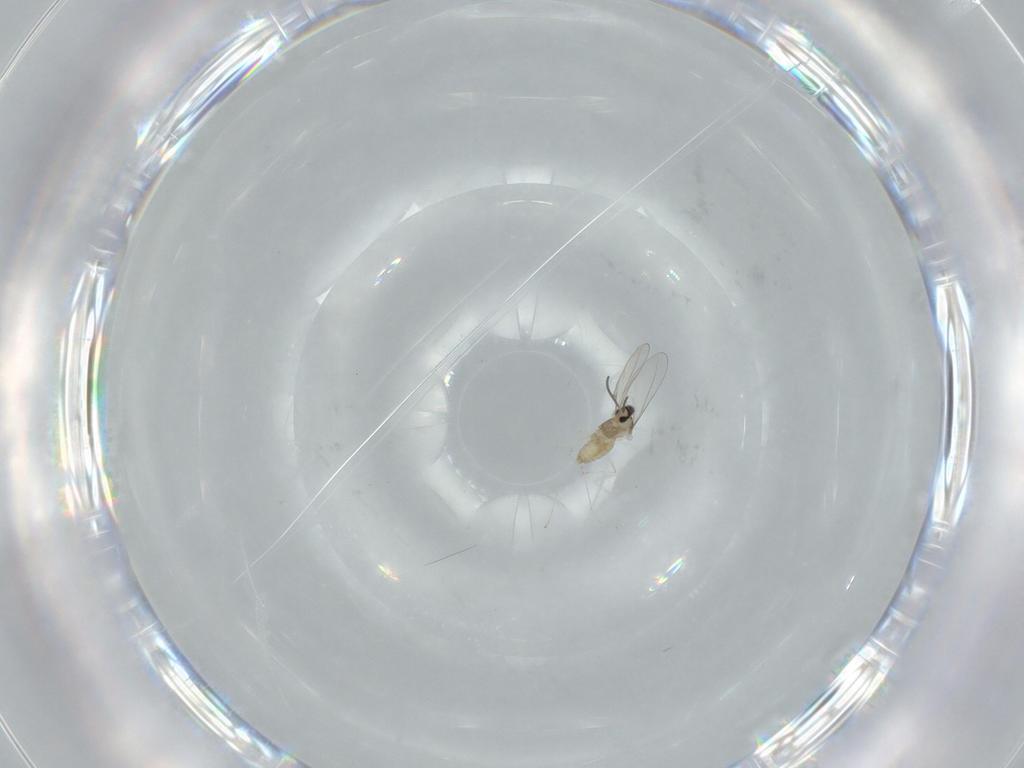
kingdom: Animalia
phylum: Arthropoda
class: Insecta
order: Diptera
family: Cecidomyiidae
